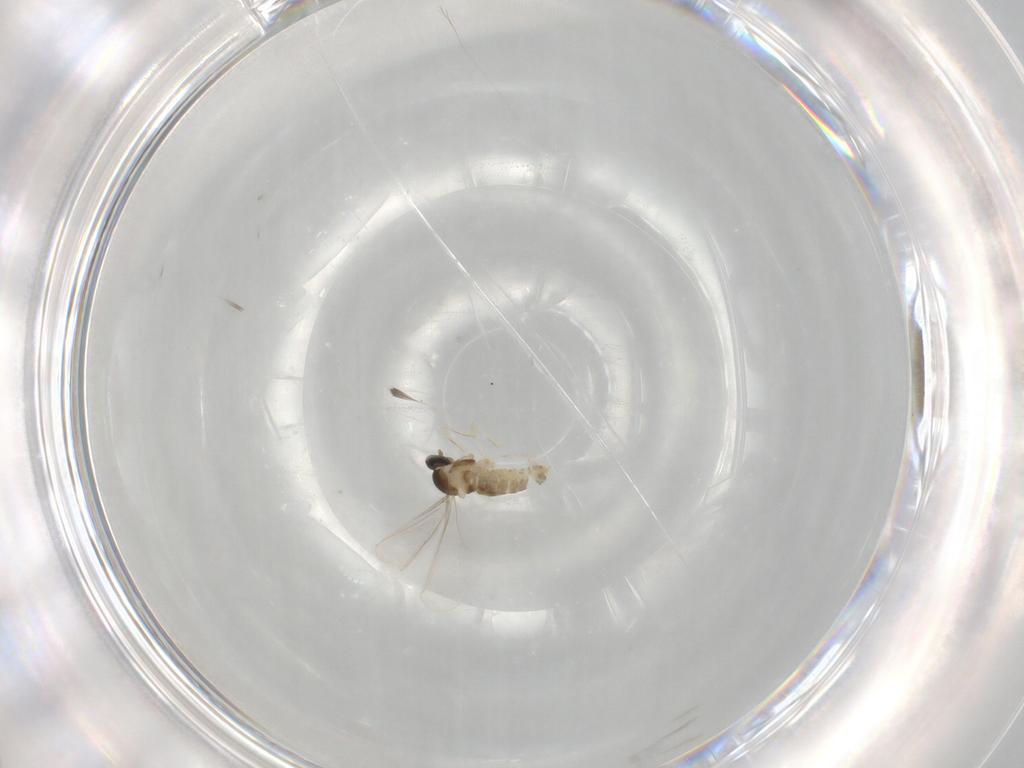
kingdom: Animalia
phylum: Arthropoda
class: Insecta
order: Diptera
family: Cecidomyiidae
